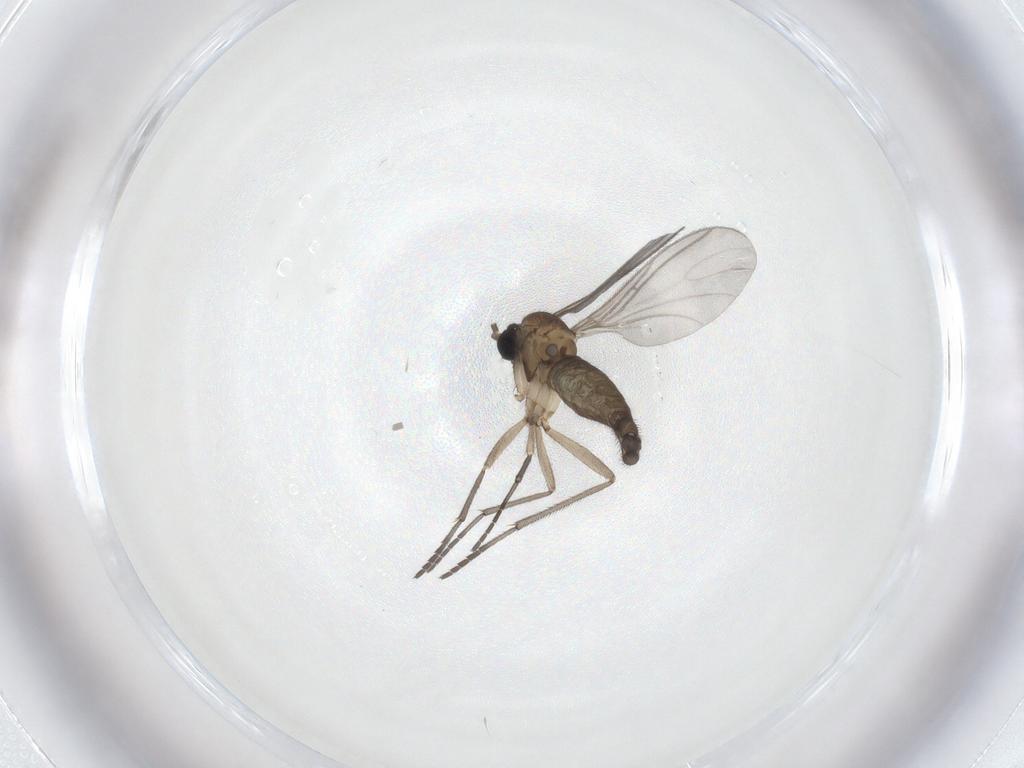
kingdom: Animalia
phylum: Arthropoda
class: Insecta
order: Diptera
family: Sciaridae
